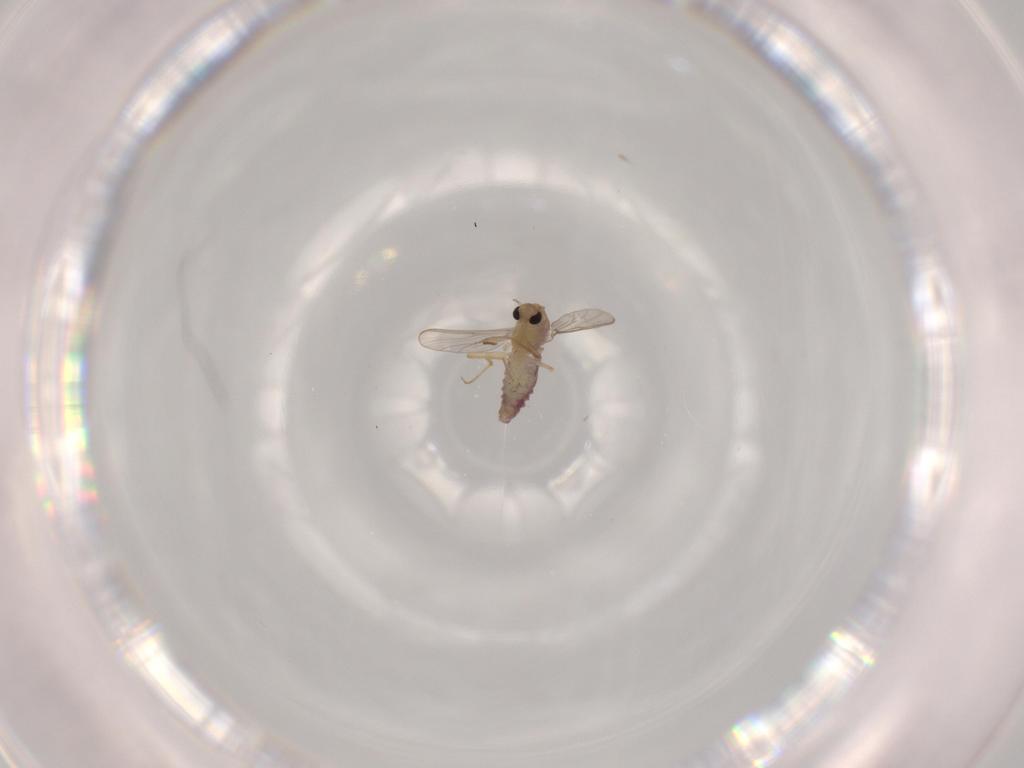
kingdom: Animalia
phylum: Arthropoda
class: Insecta
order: Diptera
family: Chironomidae
